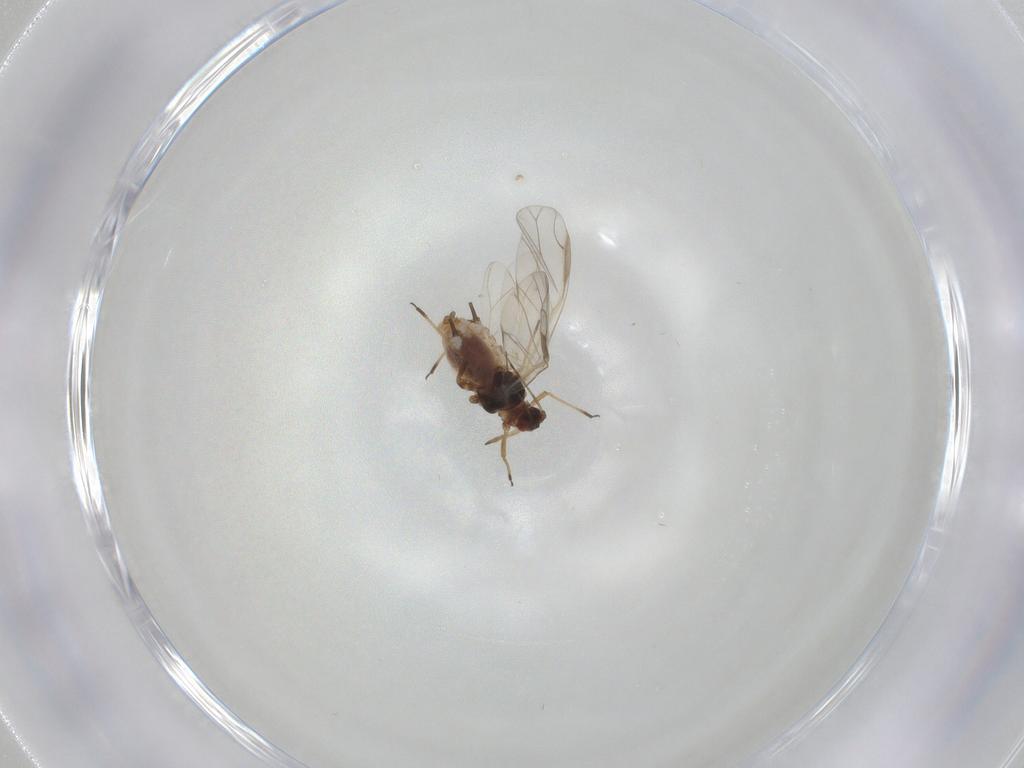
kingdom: Animalia
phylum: Arthropoda
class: Insecta
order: Hemiptera
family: Aphididae
